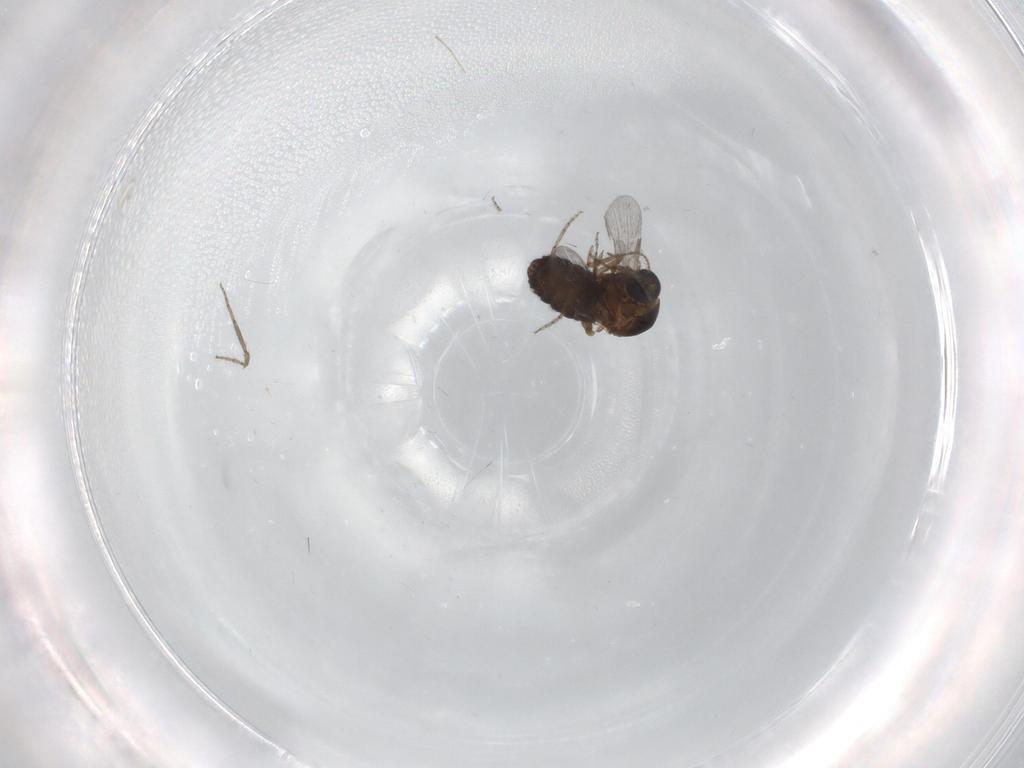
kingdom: Animalia
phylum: Arthropoda
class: Insecta
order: Diptera
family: Ceratopogonidae
